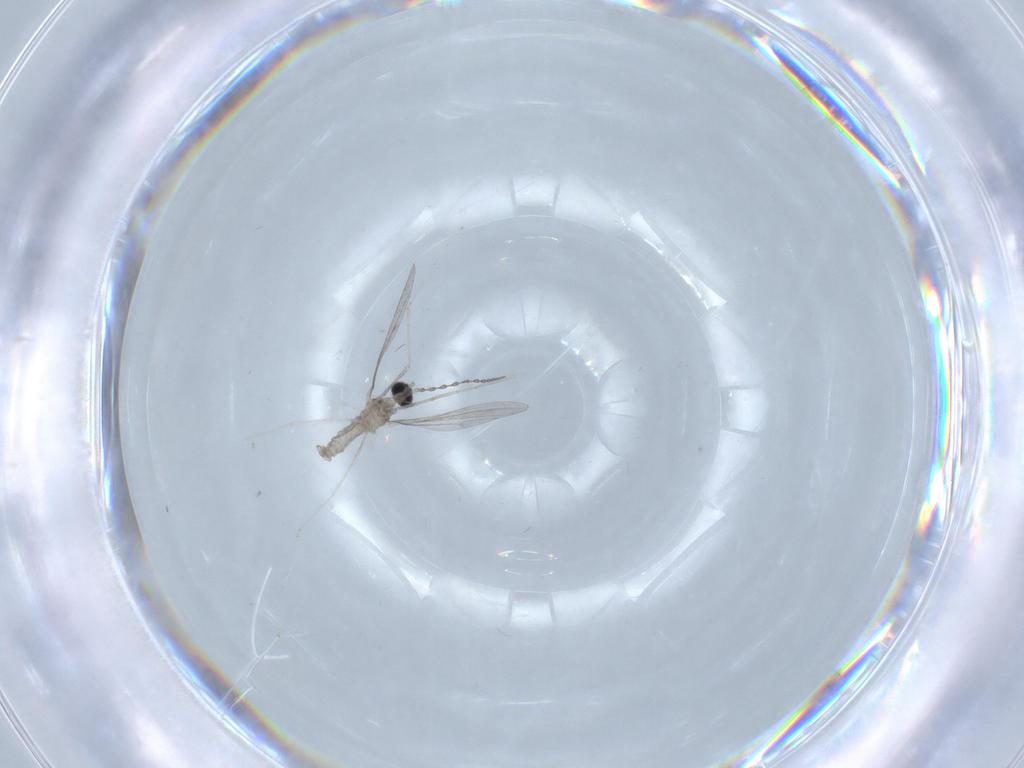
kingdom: Animalia
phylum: Arthropoda
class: Insecta
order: Diptera
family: Cecidomyiidae
